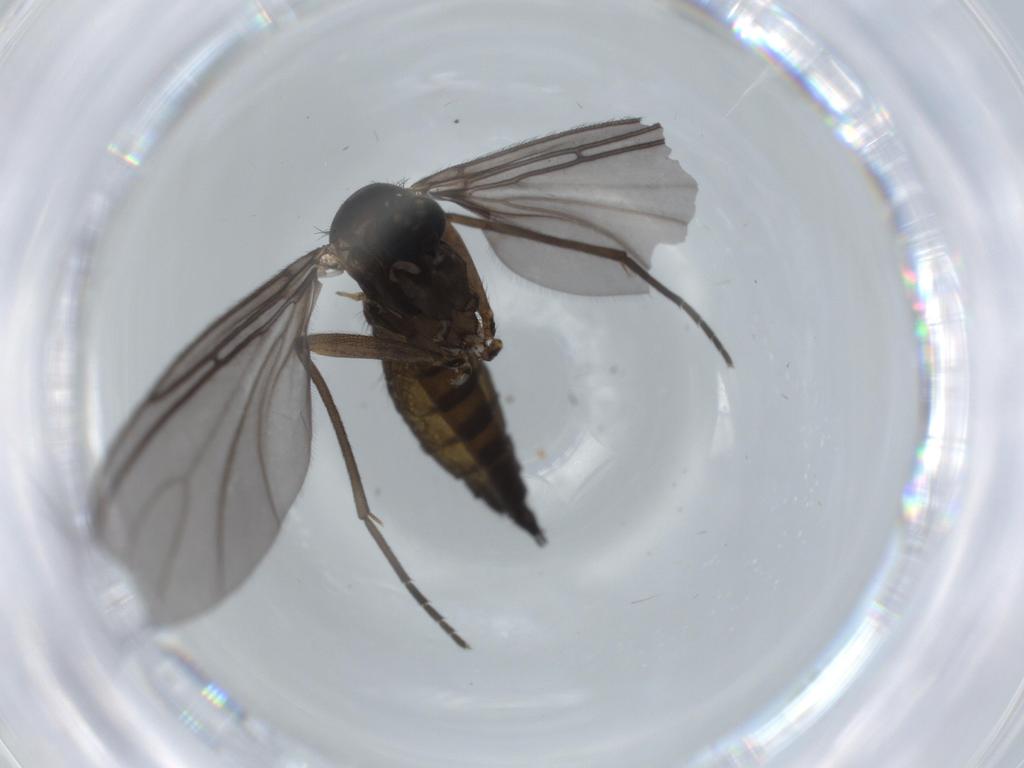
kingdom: Animalia
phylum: Arthropoda
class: Insecta
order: Diptera
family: Sciaridae
